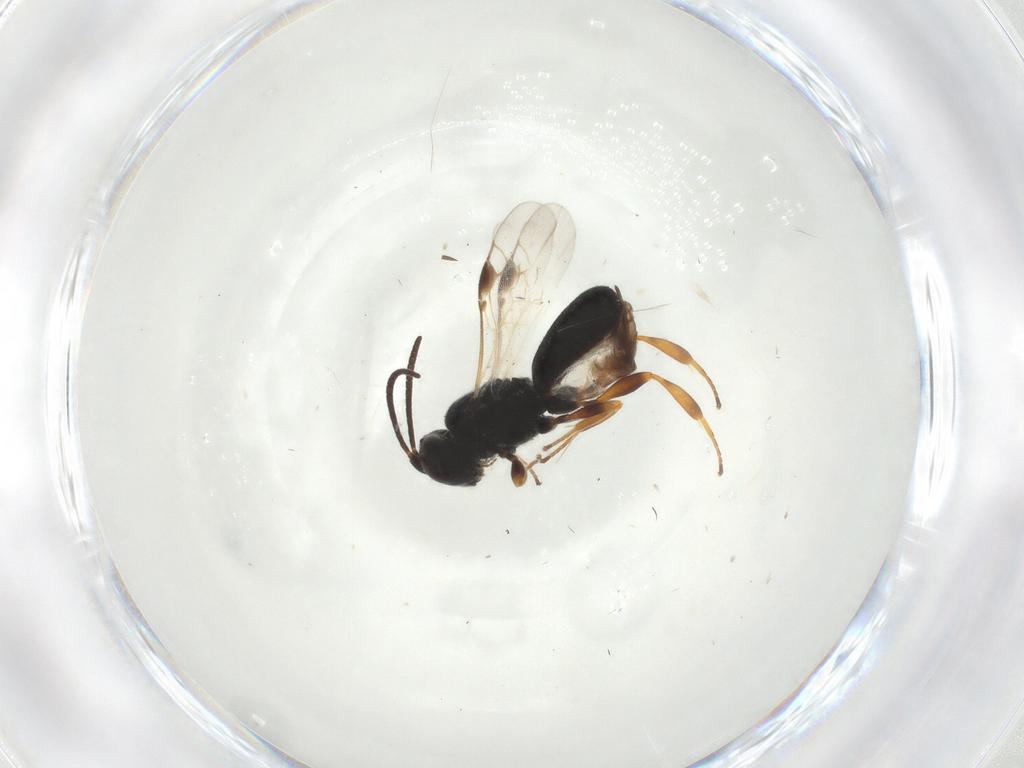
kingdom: Animalia
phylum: Arthropoda
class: Insecta
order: Hymenoptera
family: Braconidae
